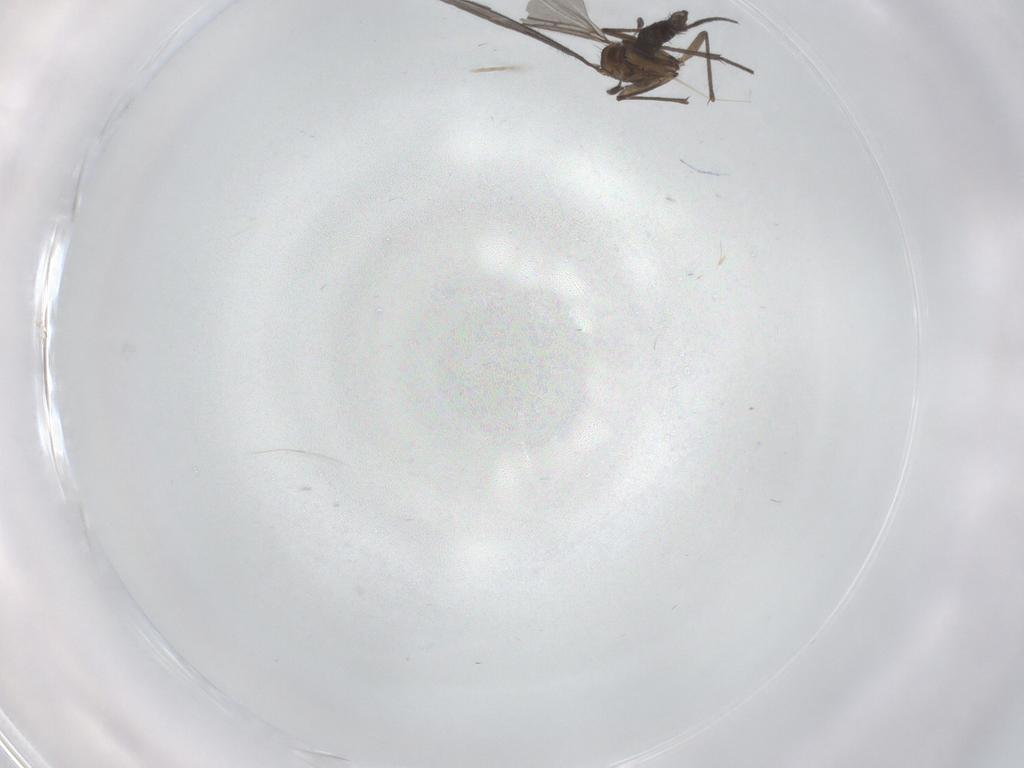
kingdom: Animalia
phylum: Arthropoda
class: Insecta
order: Diptera
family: Sciaridae
